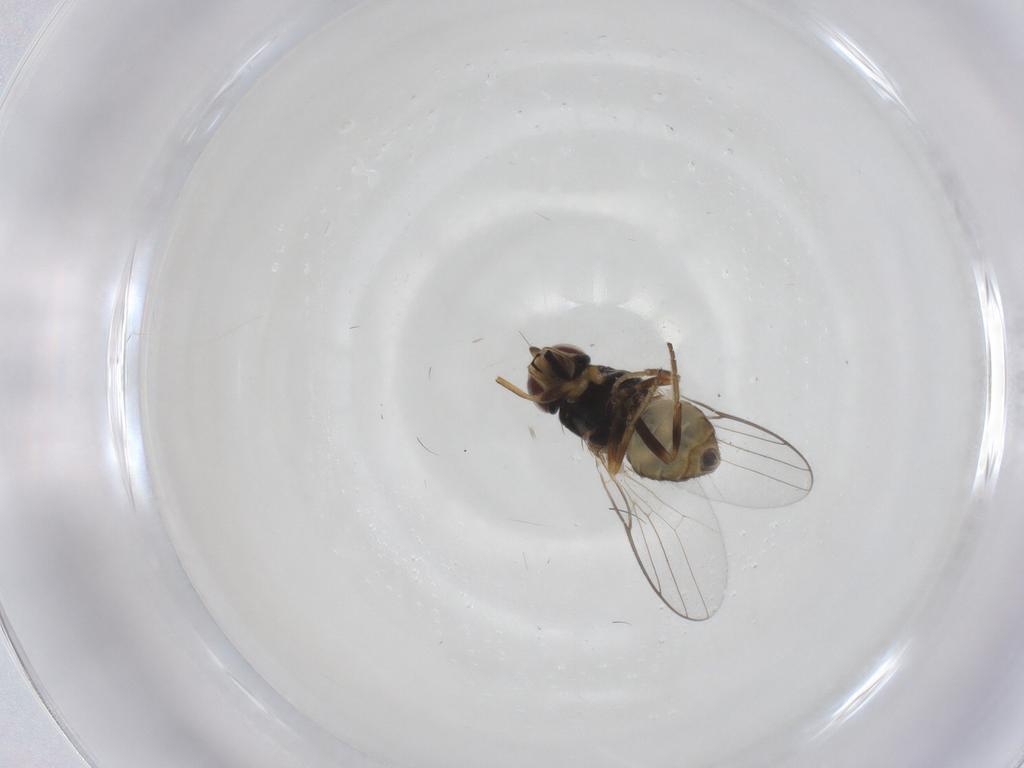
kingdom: Animalia
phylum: Arthropoda
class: Insecta
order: Diptera
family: Chloropidae
